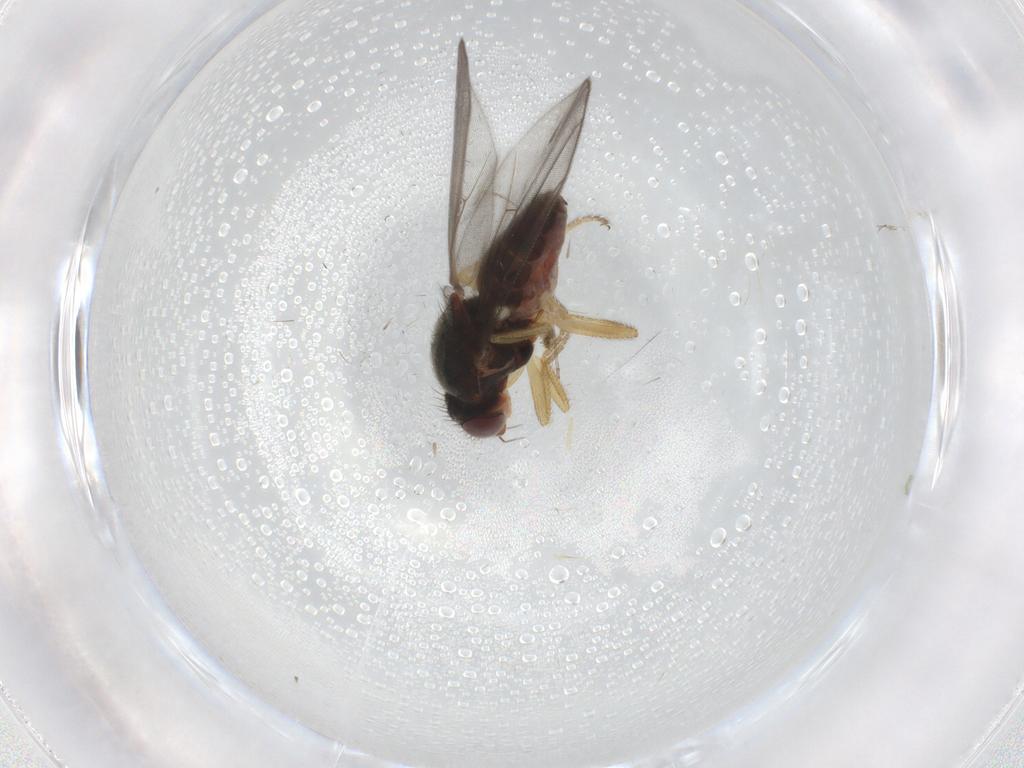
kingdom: Animalia
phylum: Arthropoda
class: Insecta
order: Diptera
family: Chloropidae
